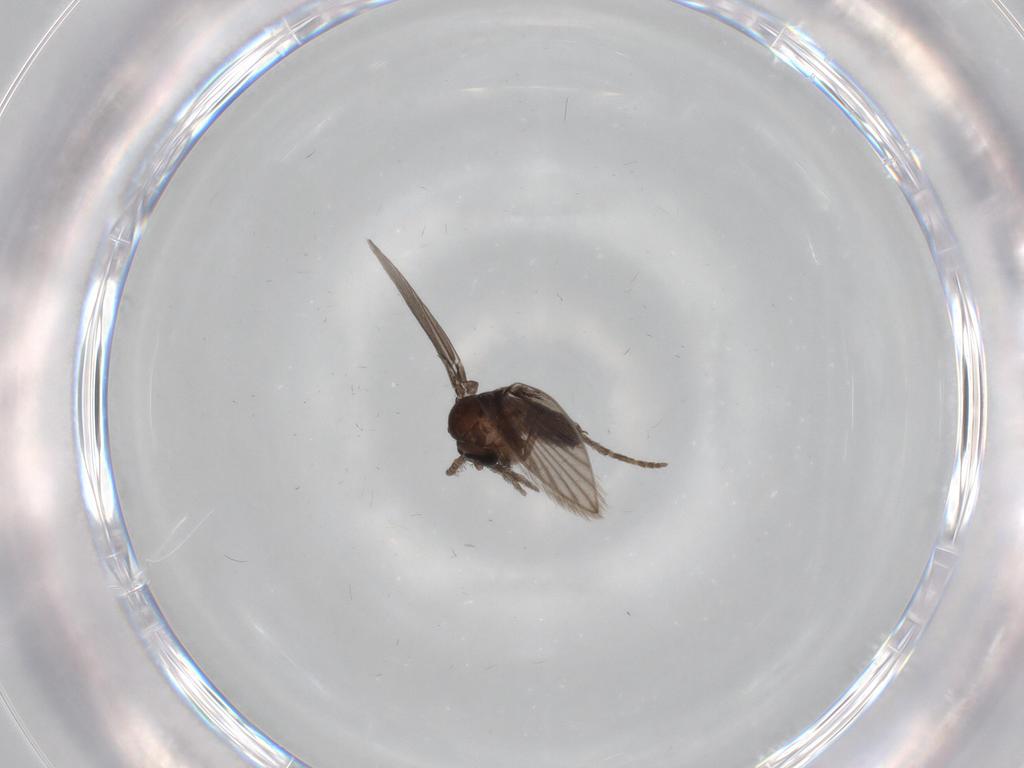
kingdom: Animalia
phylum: Arthropoda
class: Insecta
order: Diptera
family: Psychodidae
